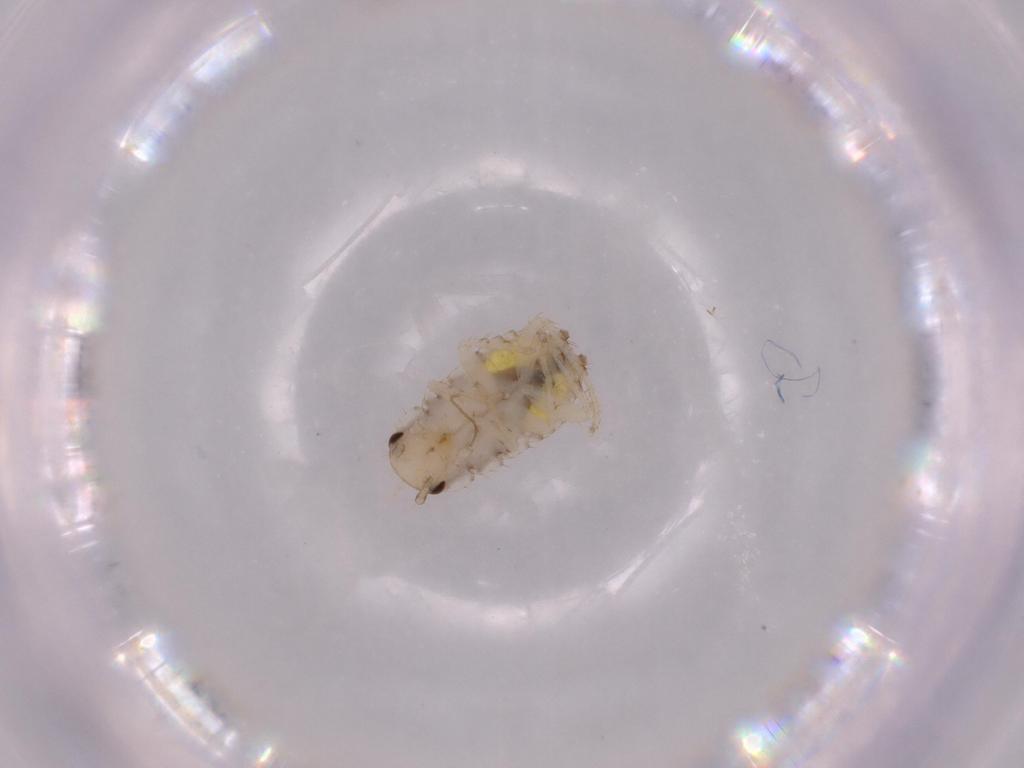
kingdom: Animalia
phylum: Arthropoda
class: Insecta
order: Blattodea
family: Ectobiidae
